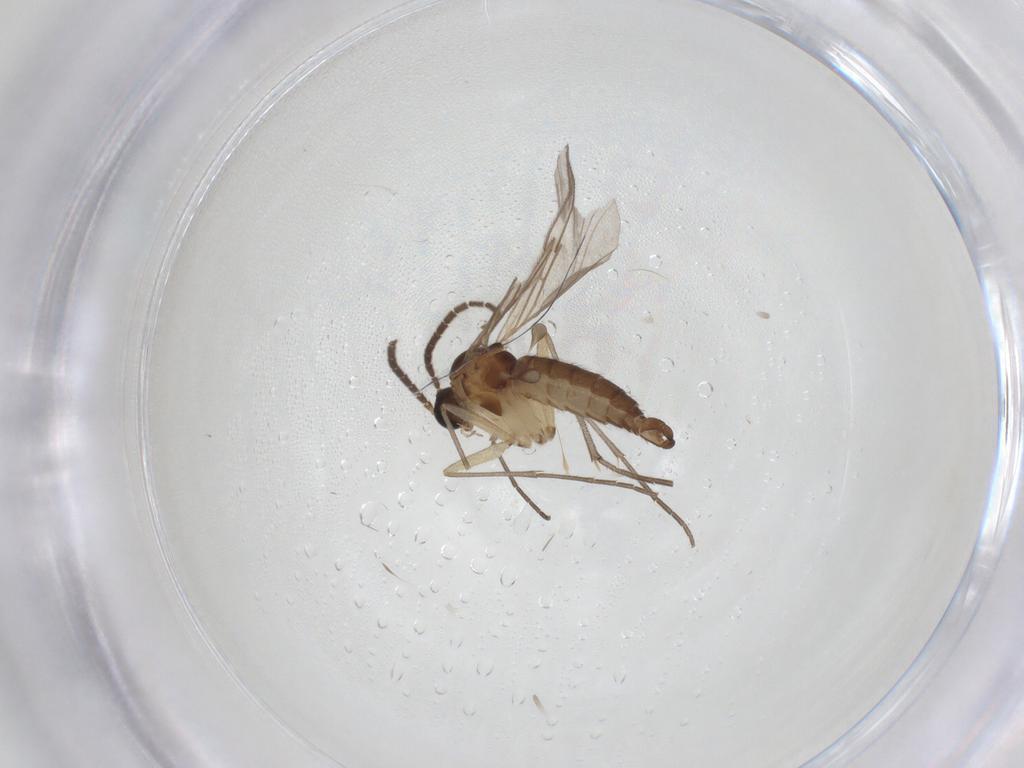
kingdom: Animalia
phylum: Arthropoda
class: Insecta
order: Diptera
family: Sciaridae
